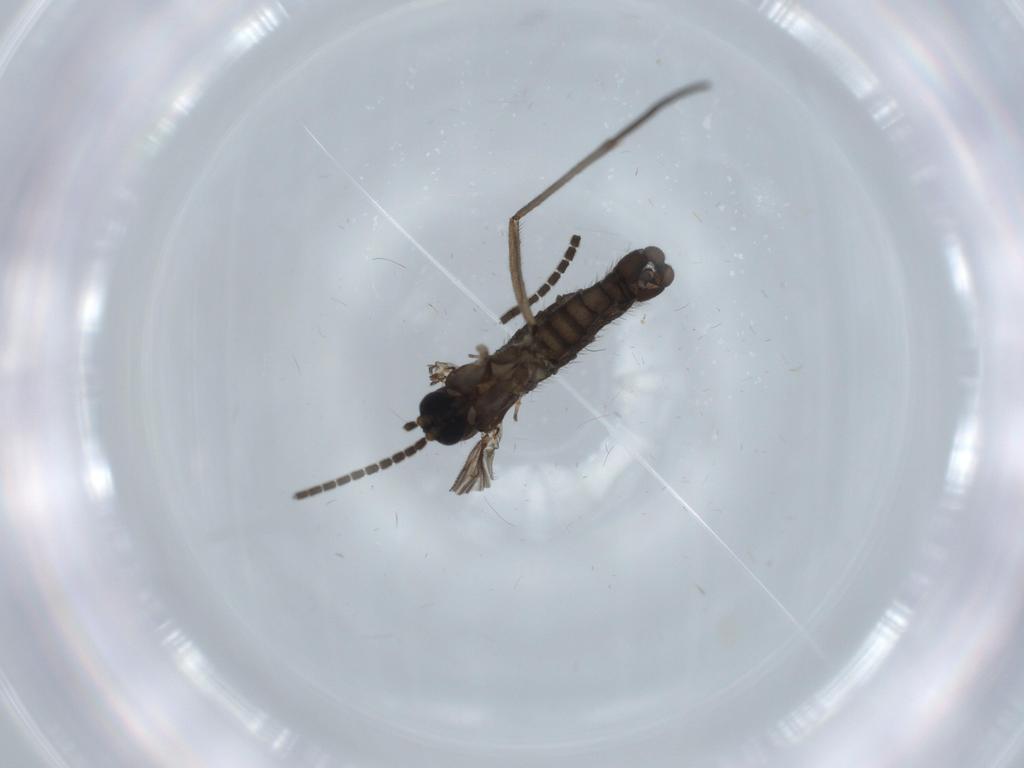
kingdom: Animalia
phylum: Arthropoda
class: Insecta
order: Diptera
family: Sciaridae
